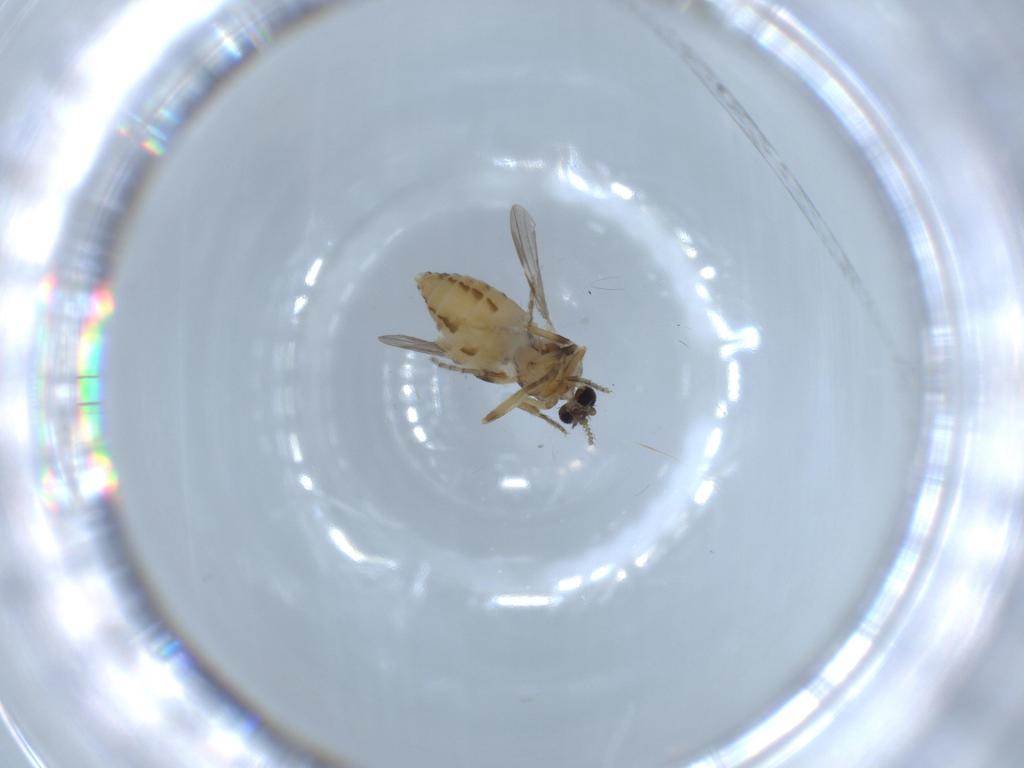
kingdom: Animalia
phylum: Arthropoda
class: Insecta
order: Diptera
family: Ceratopogonidae
